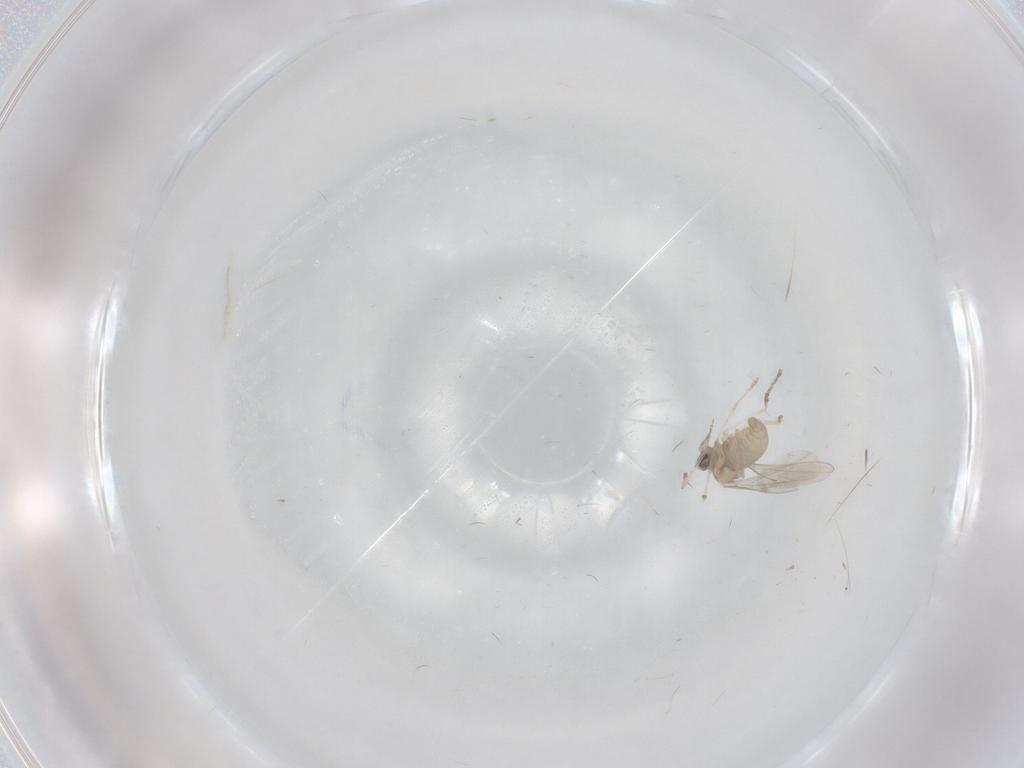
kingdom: Animalia
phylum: Arthropoda
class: Insecta
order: Diptera
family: Cecidomyiidae
